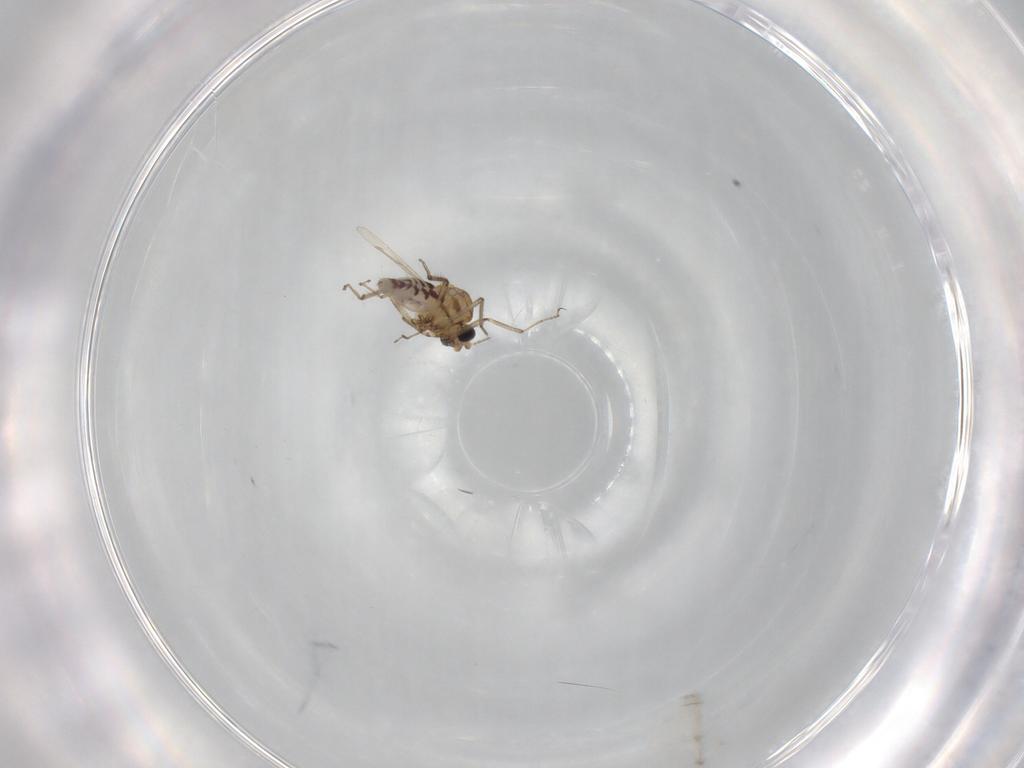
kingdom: Animalia
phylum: Arthropoda
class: Insecta
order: Diptera
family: Ceratopogonidae
